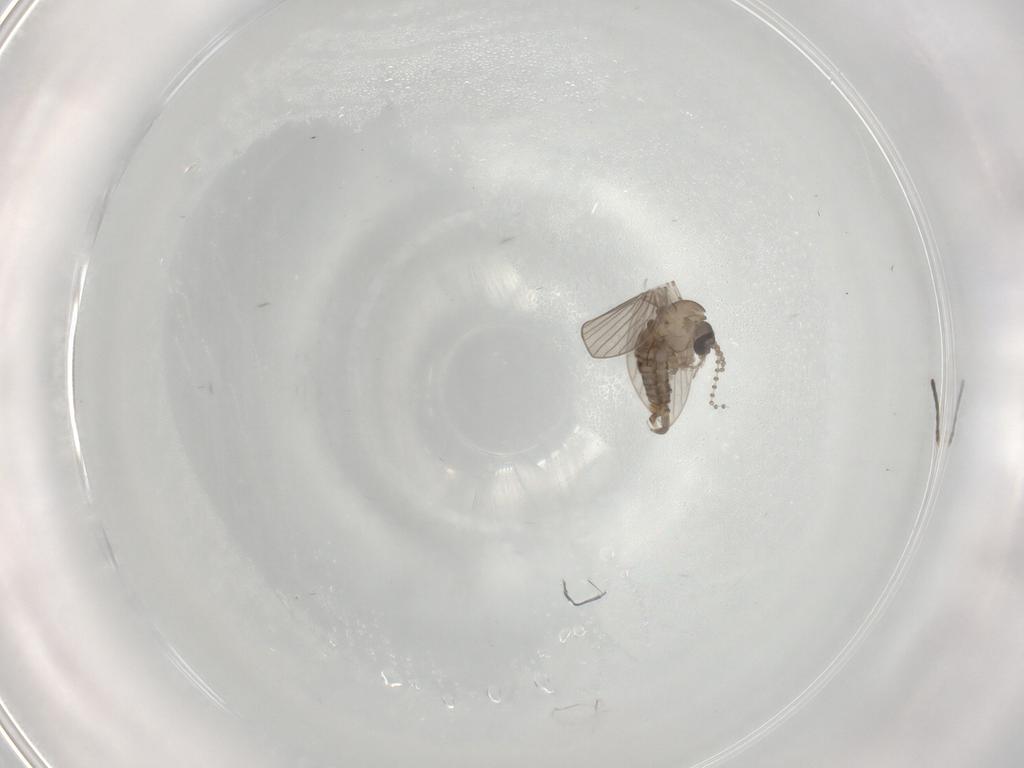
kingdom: Animalia
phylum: Arthropoda
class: Insecta
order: Diptera
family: Psychodidae
